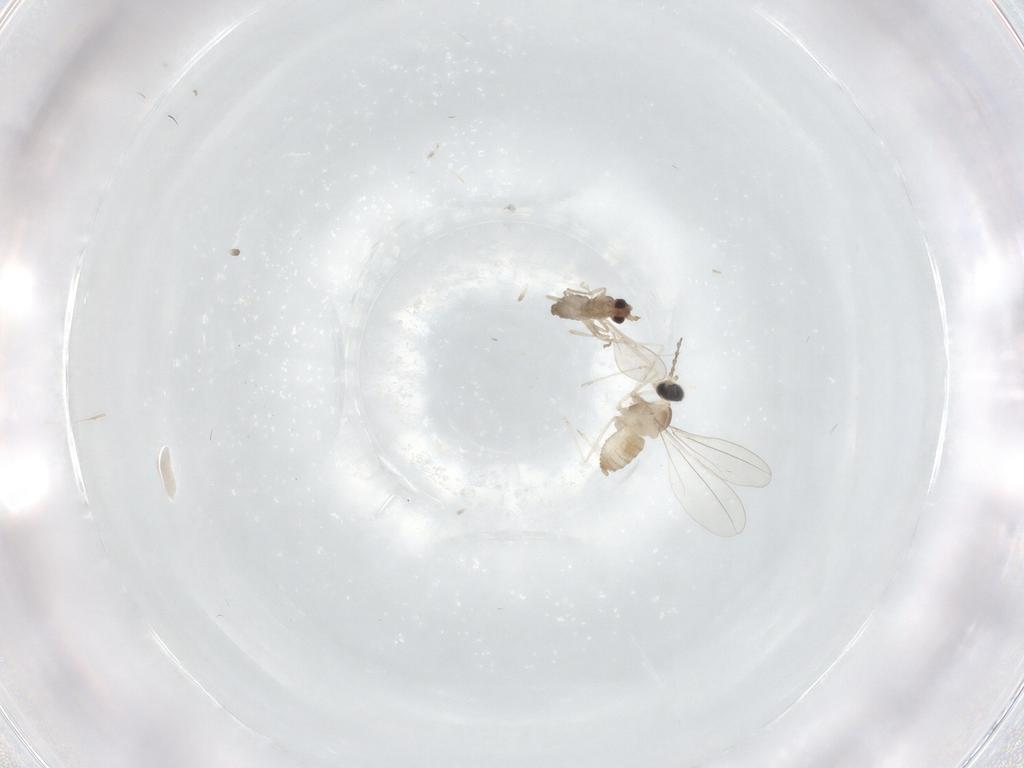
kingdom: Animalia
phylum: Arthropoda
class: Insecta
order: Diptera
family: Cecidomyiidae
